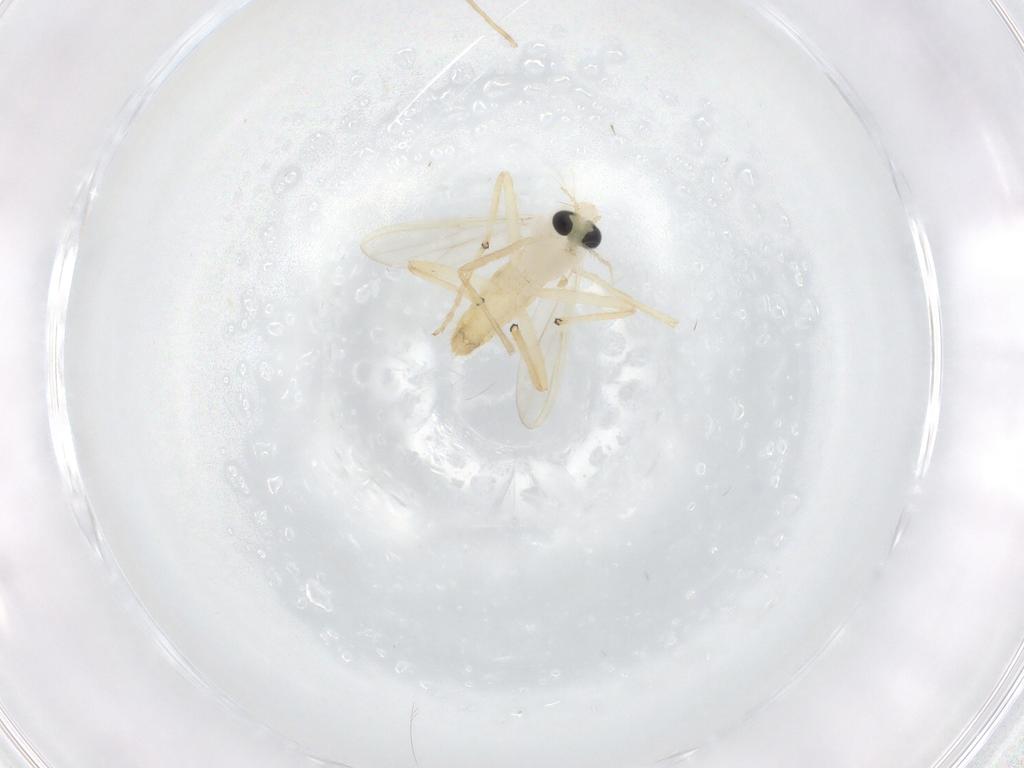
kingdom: Animalia
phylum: Arthropoda
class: Insecta
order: Diptera
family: Chironomidae
